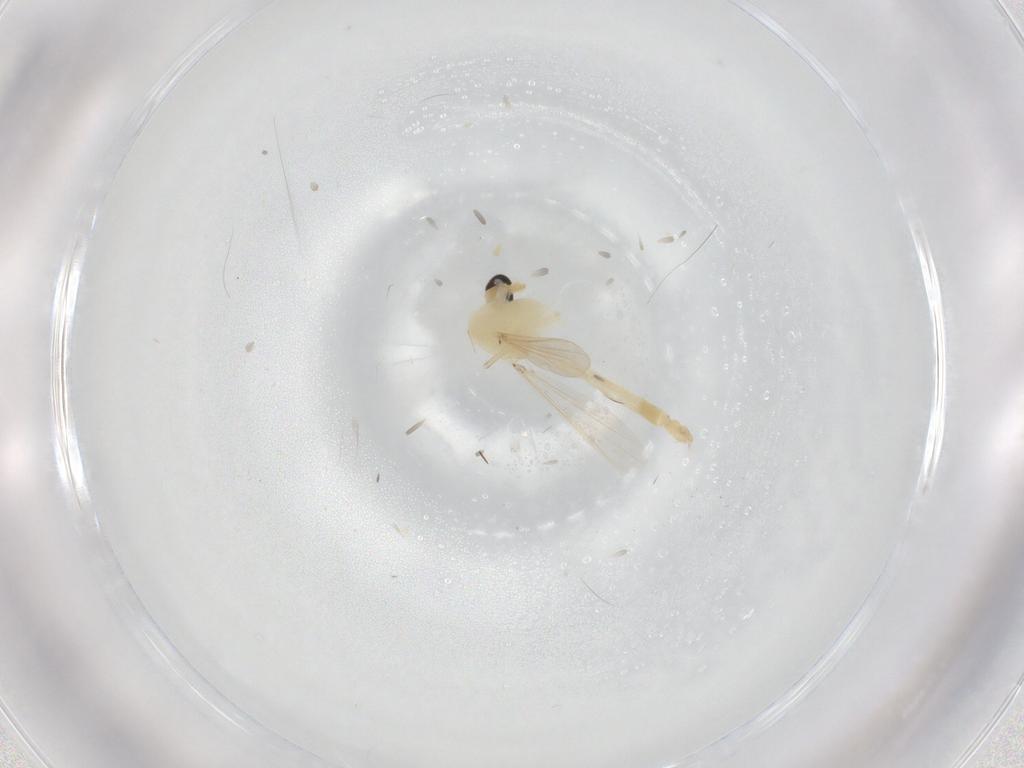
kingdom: Animalia
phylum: Arthropoda
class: Insecta
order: Diptera
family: Chironomidae
